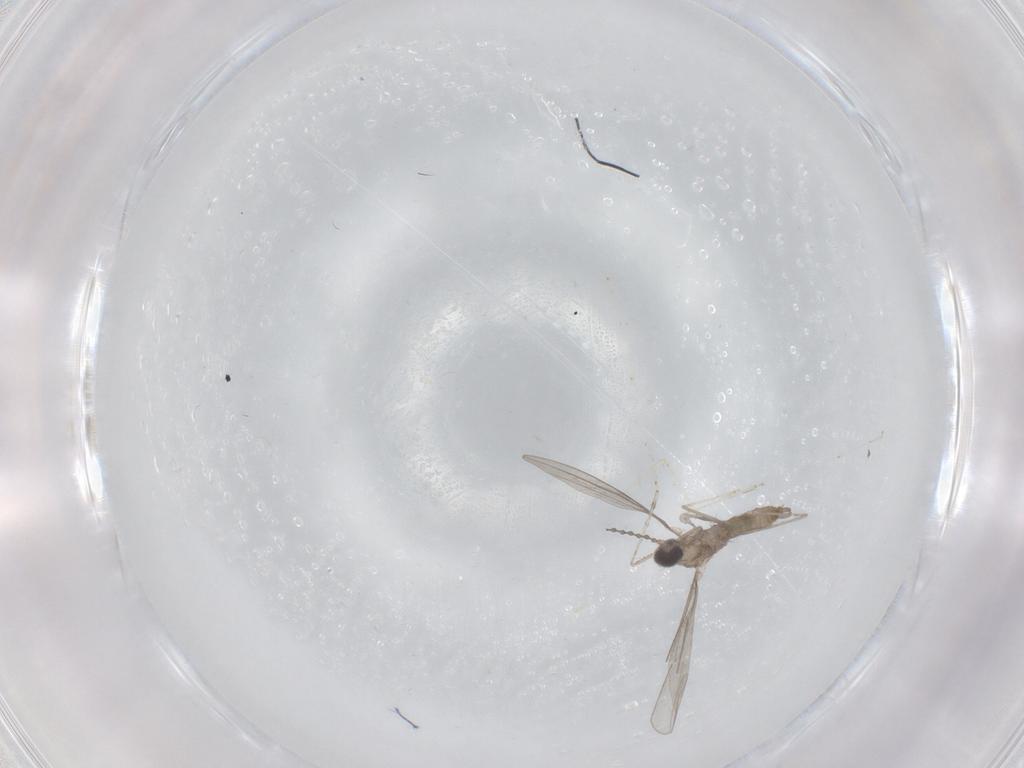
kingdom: Animalia
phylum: Arthropoda
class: Insecta
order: Diptera
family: Limoniidae
